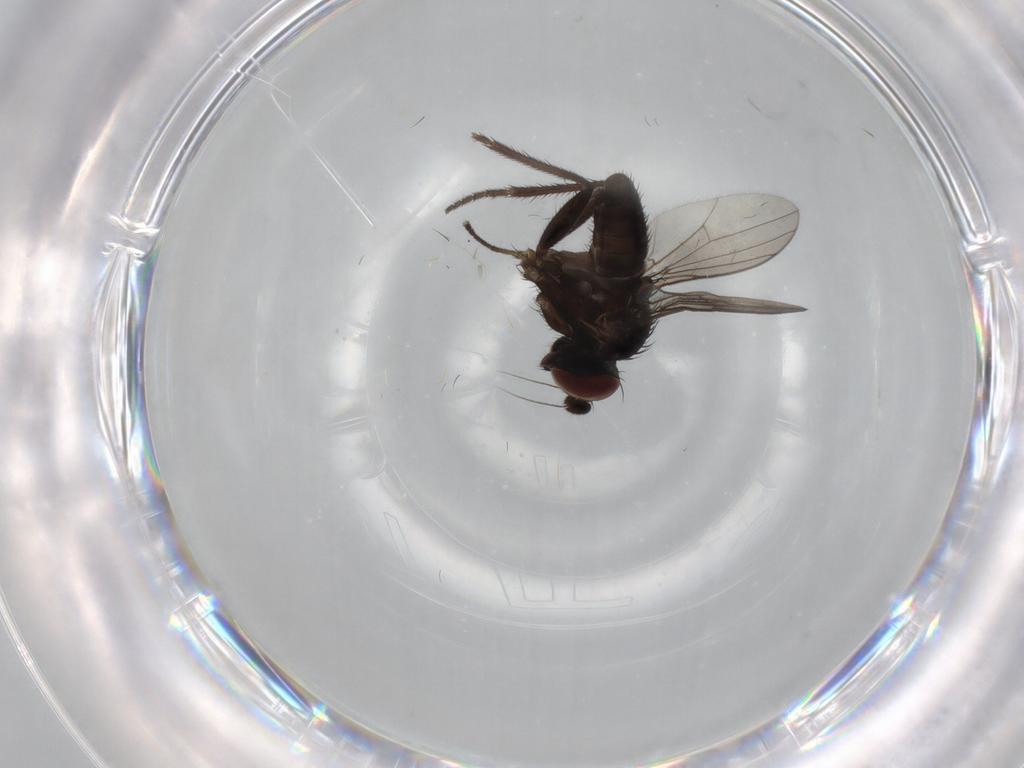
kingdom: Animalia
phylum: Arthropoda
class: Insecta
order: Diptera
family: Dolichopodidae
